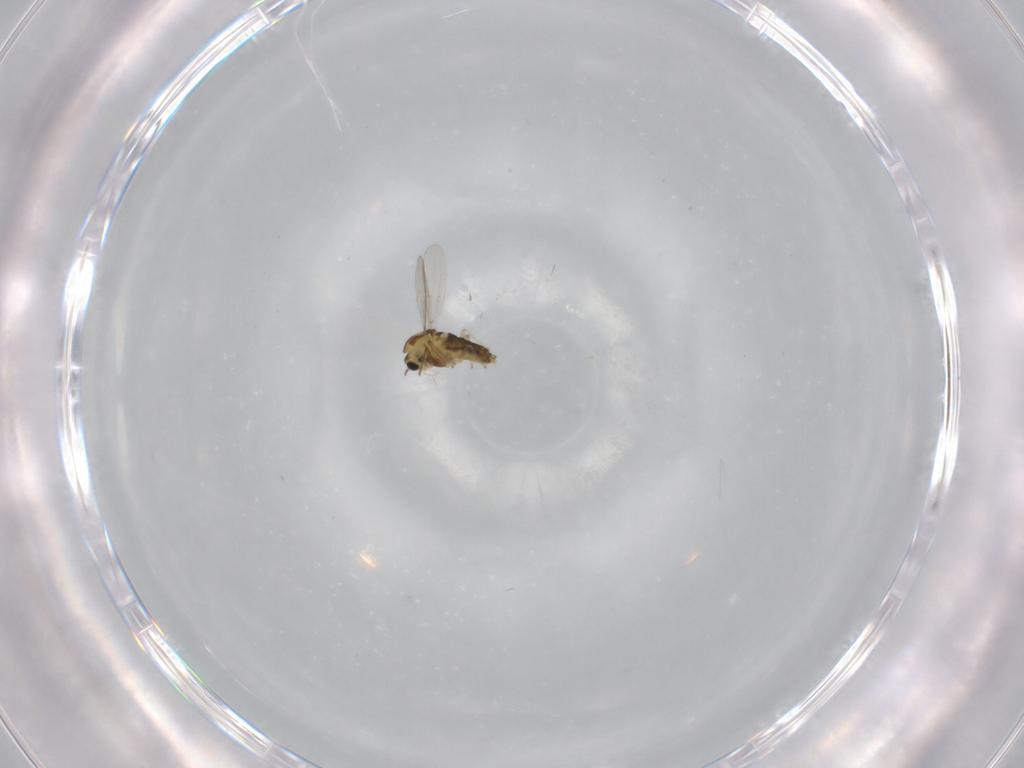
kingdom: Animalia
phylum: Arthropoda
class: Insecta
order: Diptera
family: Chironomidae
